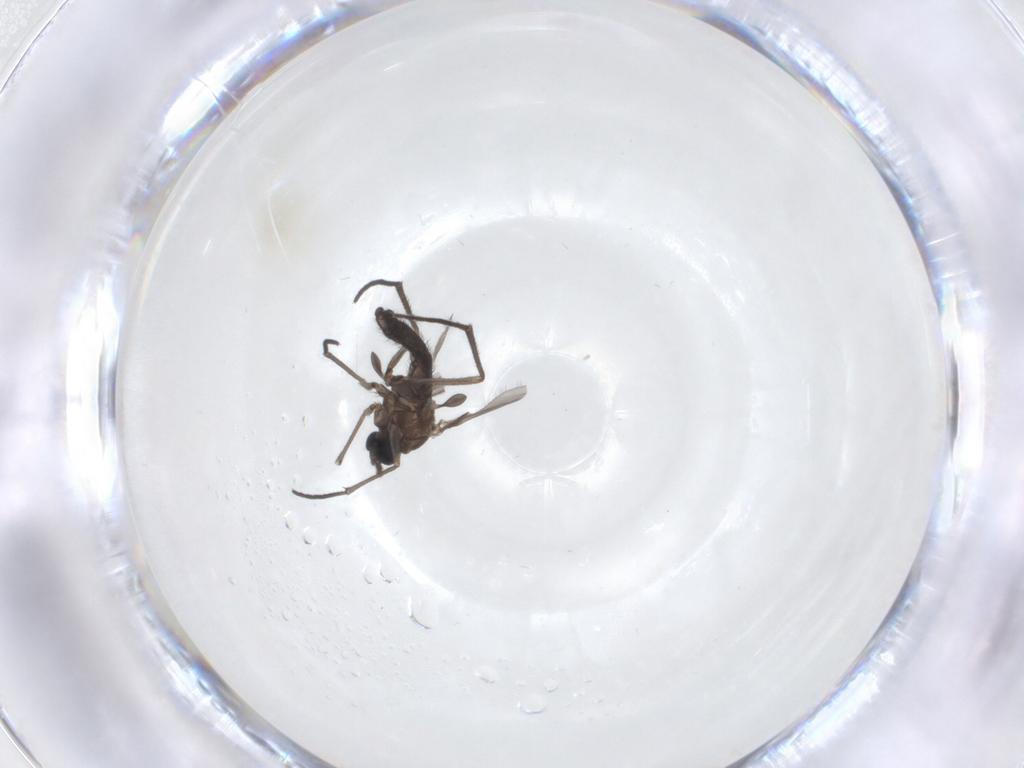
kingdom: Animalia
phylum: Arthropoda
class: Insecta
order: Diptera
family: Sciaridae
